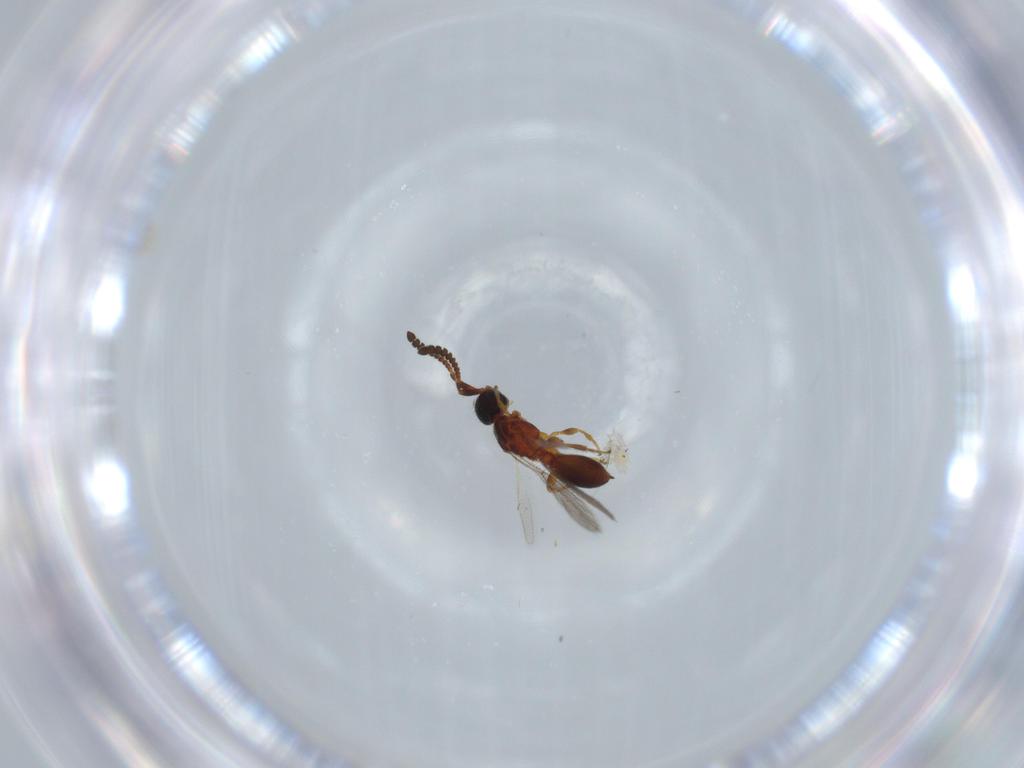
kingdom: Animalia
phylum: Arthropoda
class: Insecta
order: Hymenoptera
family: Diapriidae
